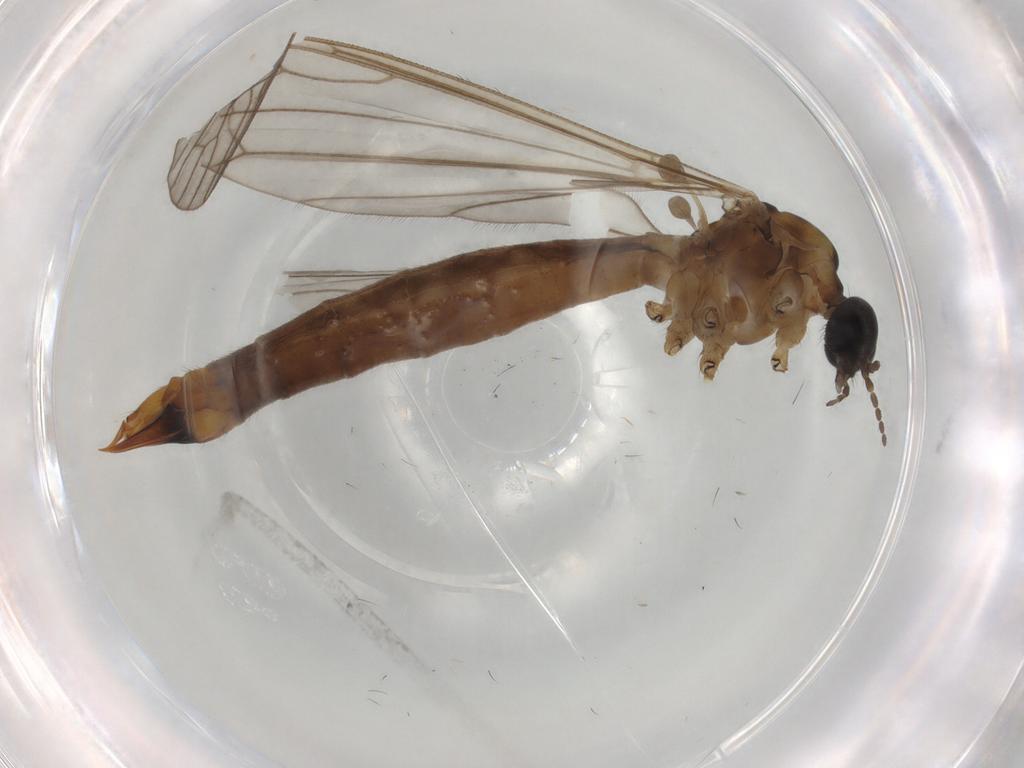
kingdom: Animalia
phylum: Arthropoda
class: Insecta
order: Diptera
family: Limoniidae
